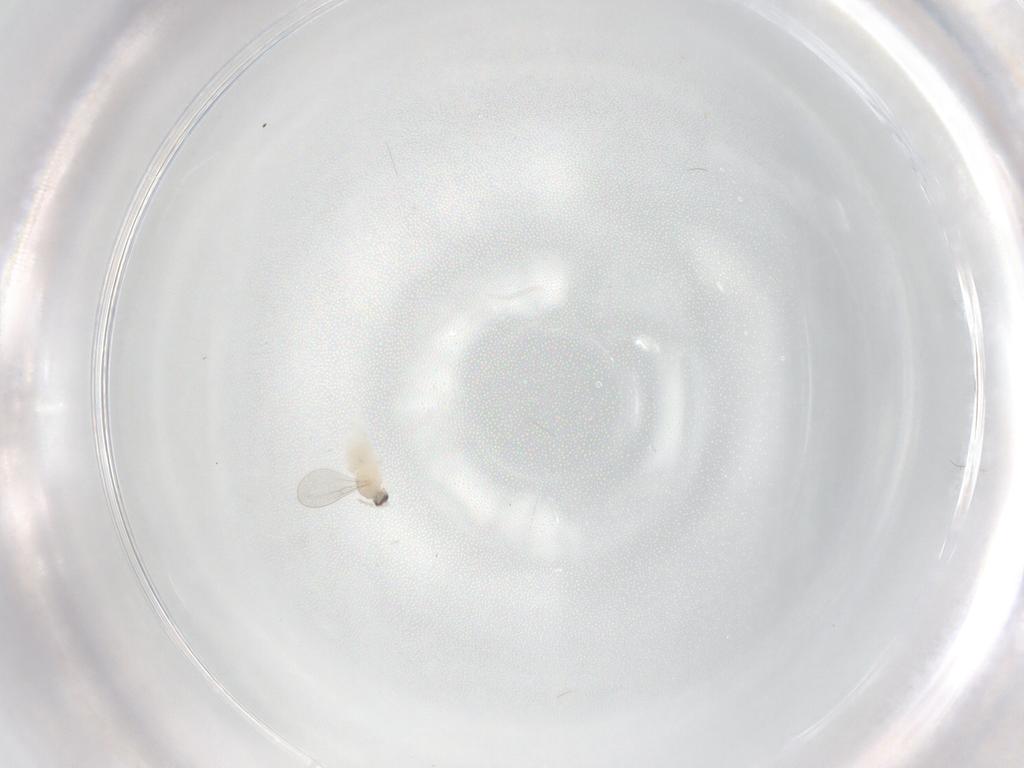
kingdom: Animalia
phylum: Arthropoda
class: Insecta
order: Diptera
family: Cecidomyiidae
